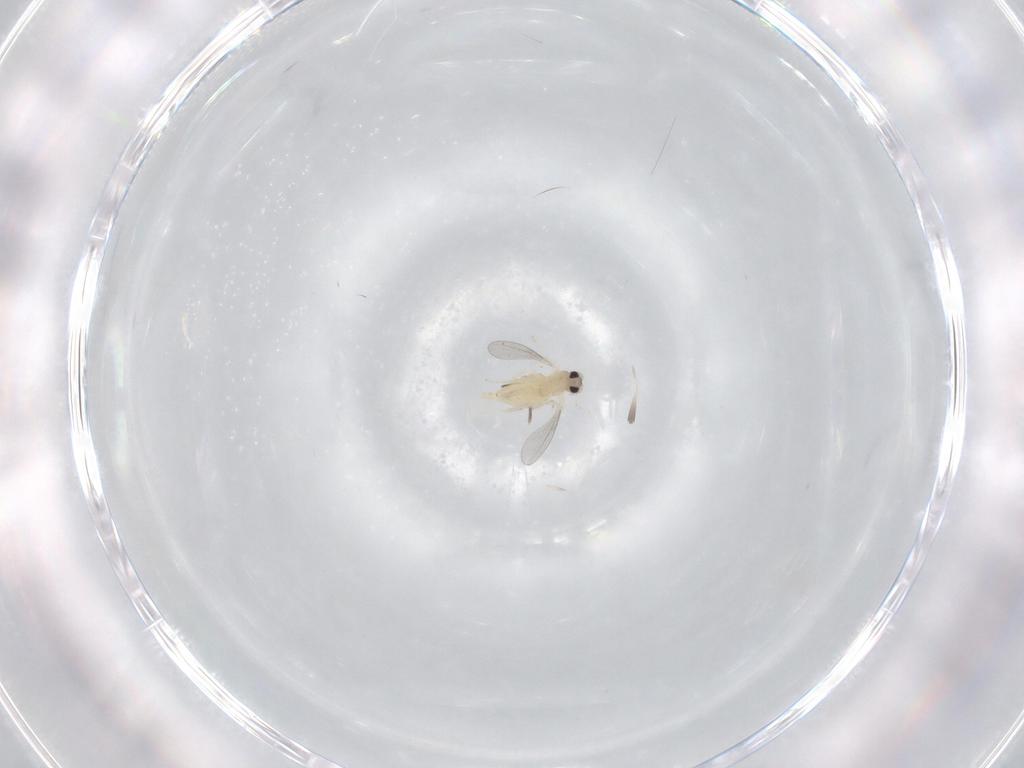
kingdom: Animalia
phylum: Arthropoda
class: Insecta
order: Diptera
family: Cecidomyiidae
